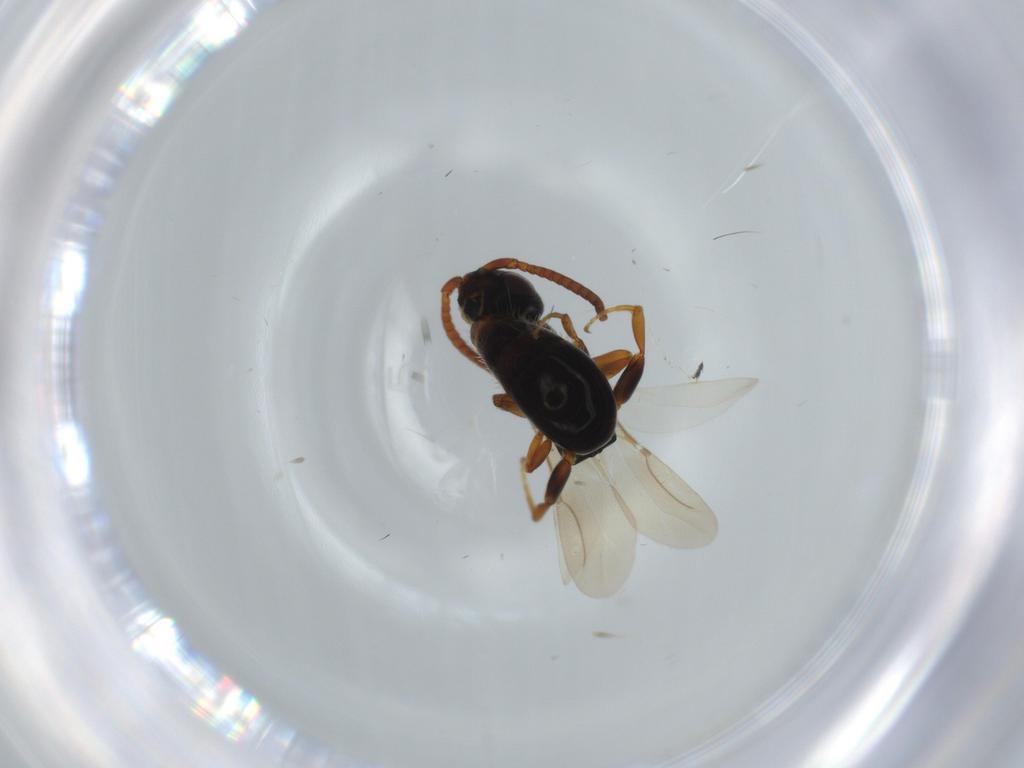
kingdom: Animalia
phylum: Arthropoda
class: Insecta
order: Hymenoptera
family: Bethylidae
